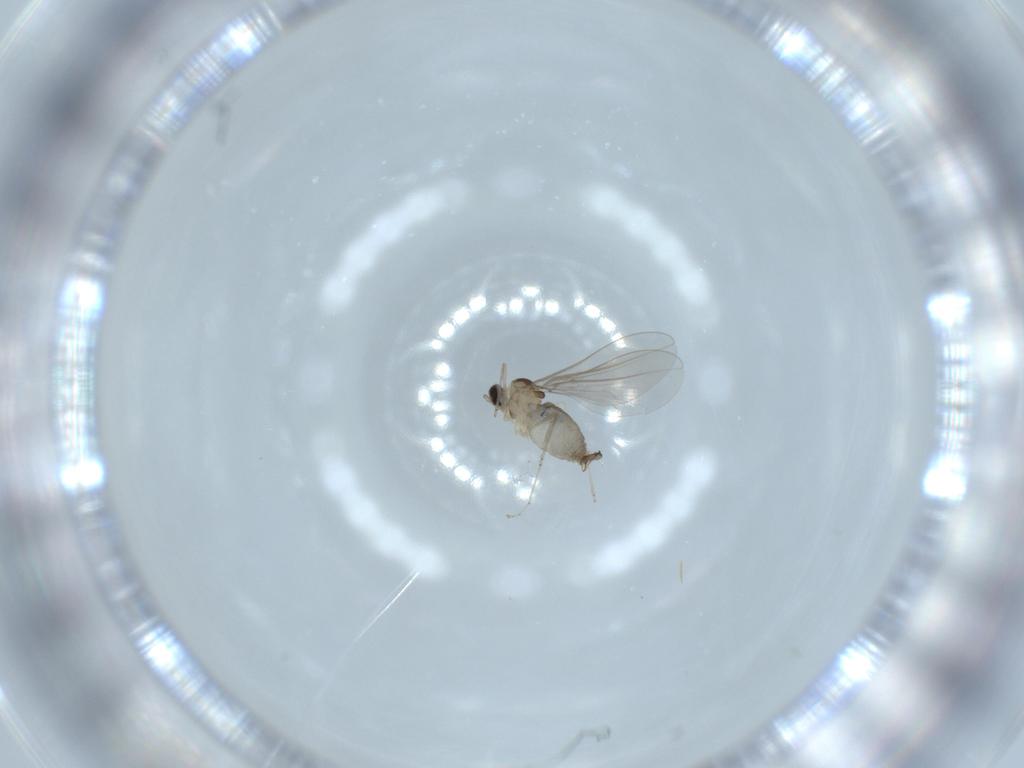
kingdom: Animalia
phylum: Arthropoda
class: Insecta
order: Diptera
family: Cecidomyiidae
